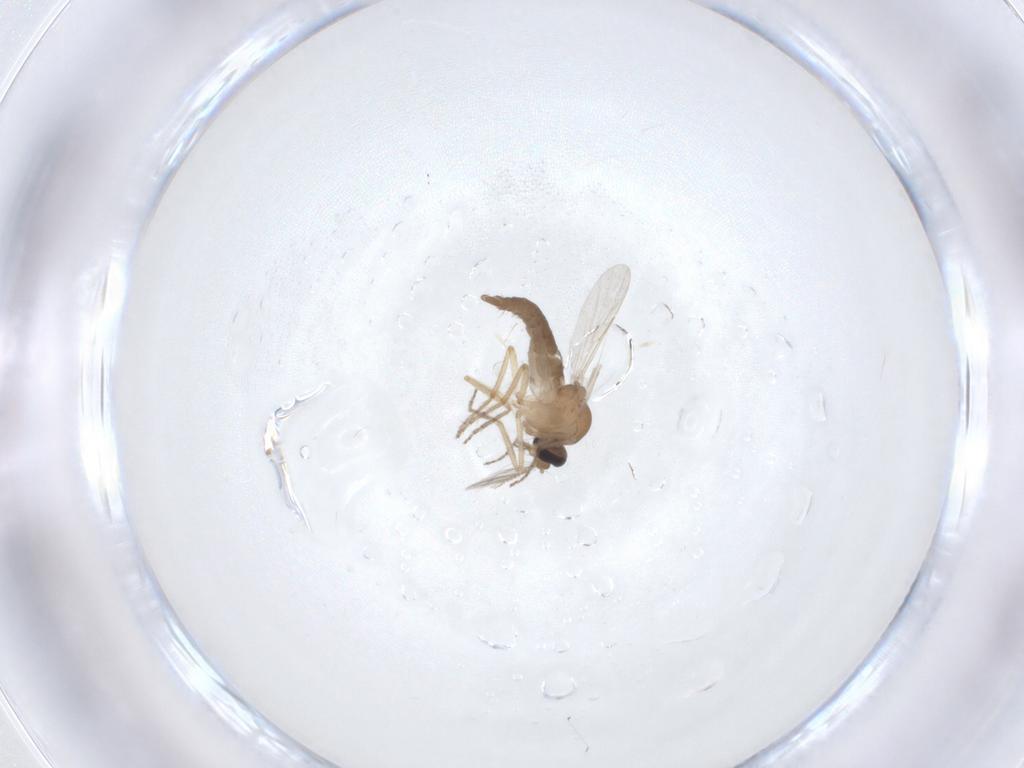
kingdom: Animalia
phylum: Arthropoda
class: Insecta
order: Diptera
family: Ceratopogonidae
